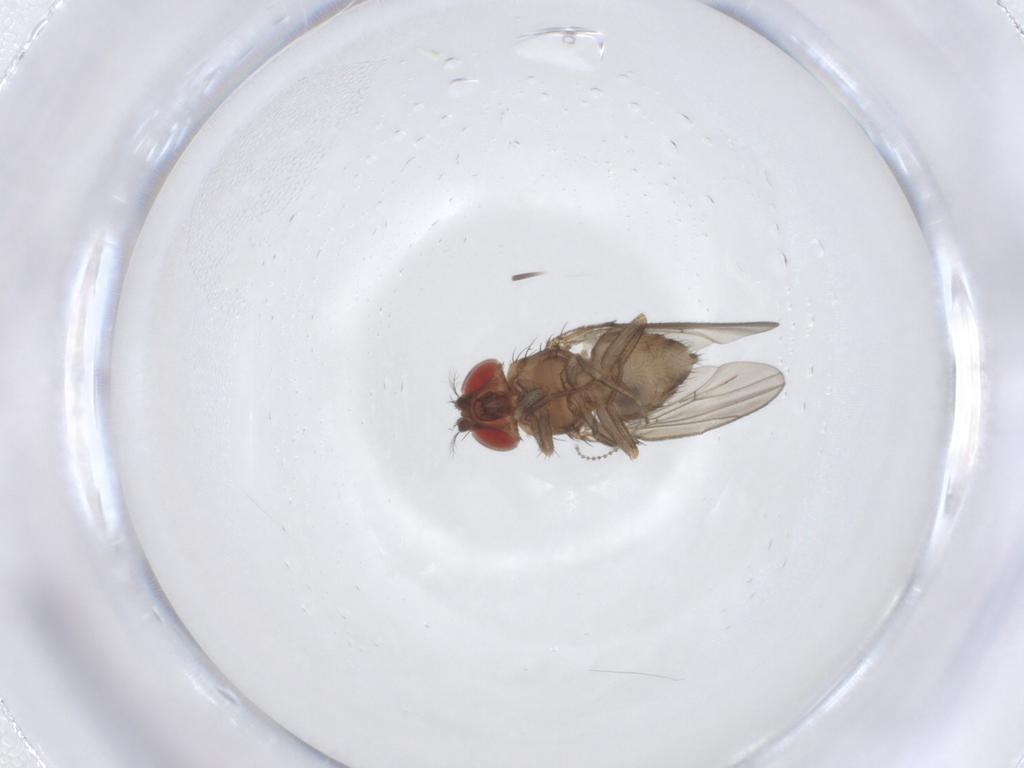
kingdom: Animalia
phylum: Arthropoda
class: Insecta
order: Diptera
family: Drosophilidae
